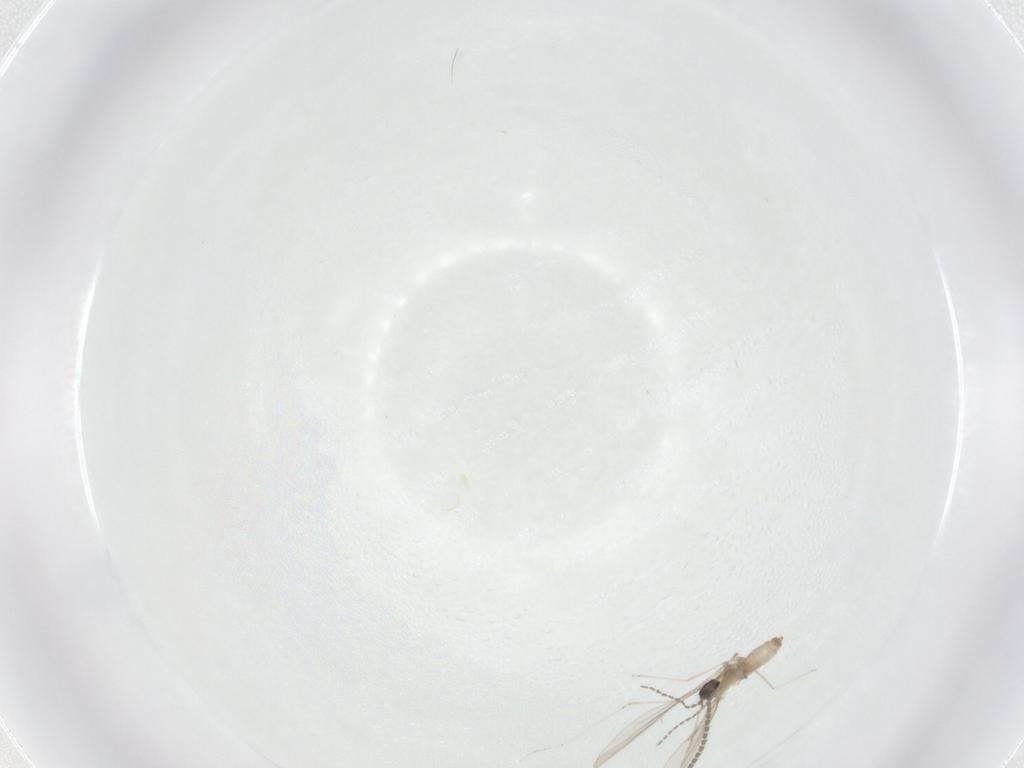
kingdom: Animalia
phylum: Arthropoda
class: Insecta
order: Diptera
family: Cecidomyiidae
